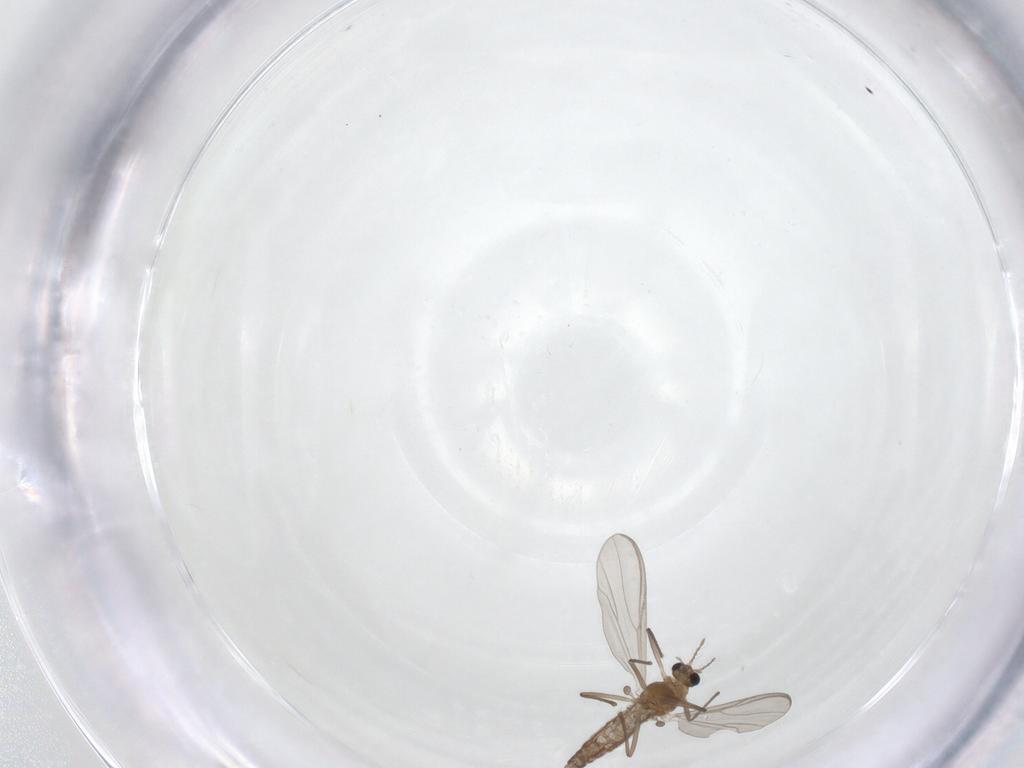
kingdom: Animalia
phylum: Arthropoda
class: Insecta
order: Diptera
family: Chironomidae
